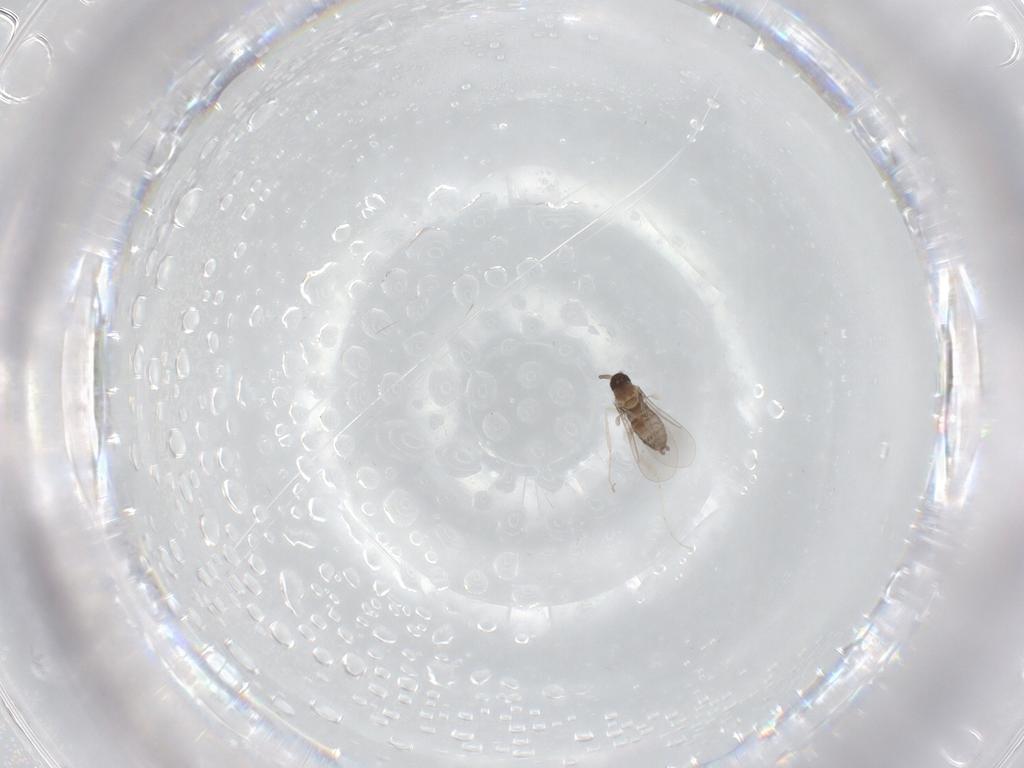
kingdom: Animalia
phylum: Arthropoda
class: Insecta
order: Diptera
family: Cecidomyiidae
